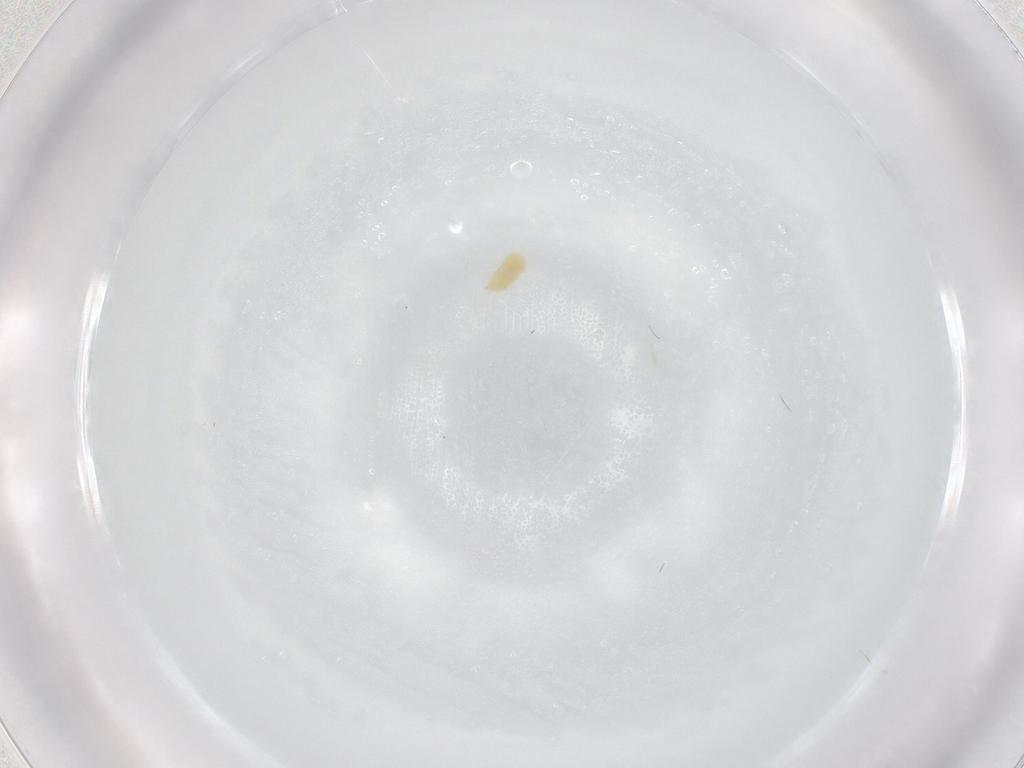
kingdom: Animalia
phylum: Arthropoda
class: Arachnida
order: Trombidiformes
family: Tetranychidae
